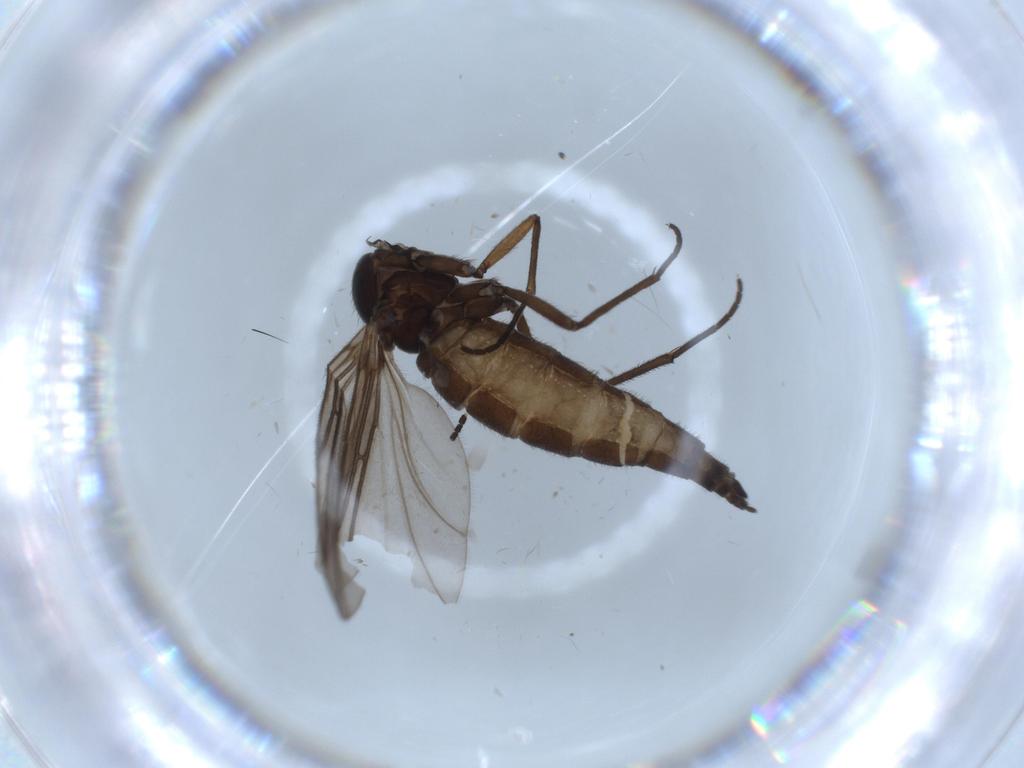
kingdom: Animalia
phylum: Arthropoda
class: Insecta
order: Diptera
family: Sciaridae
